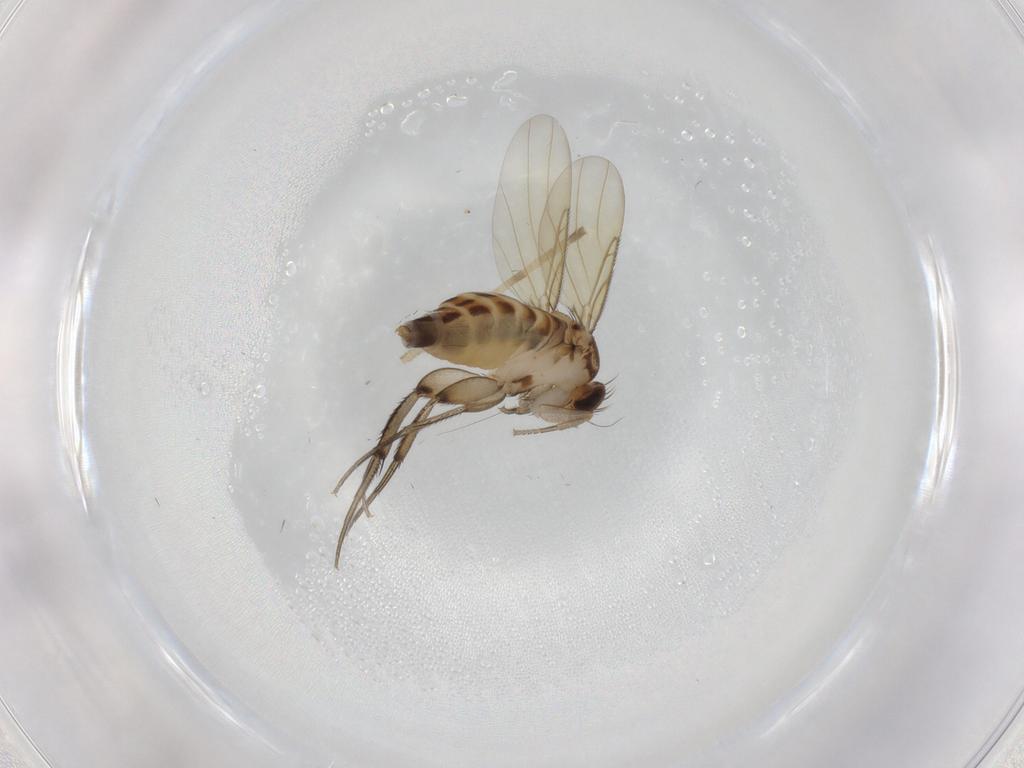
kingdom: Animalia
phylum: Arthropoda
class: Insecta
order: Diptera
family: Phoridae
